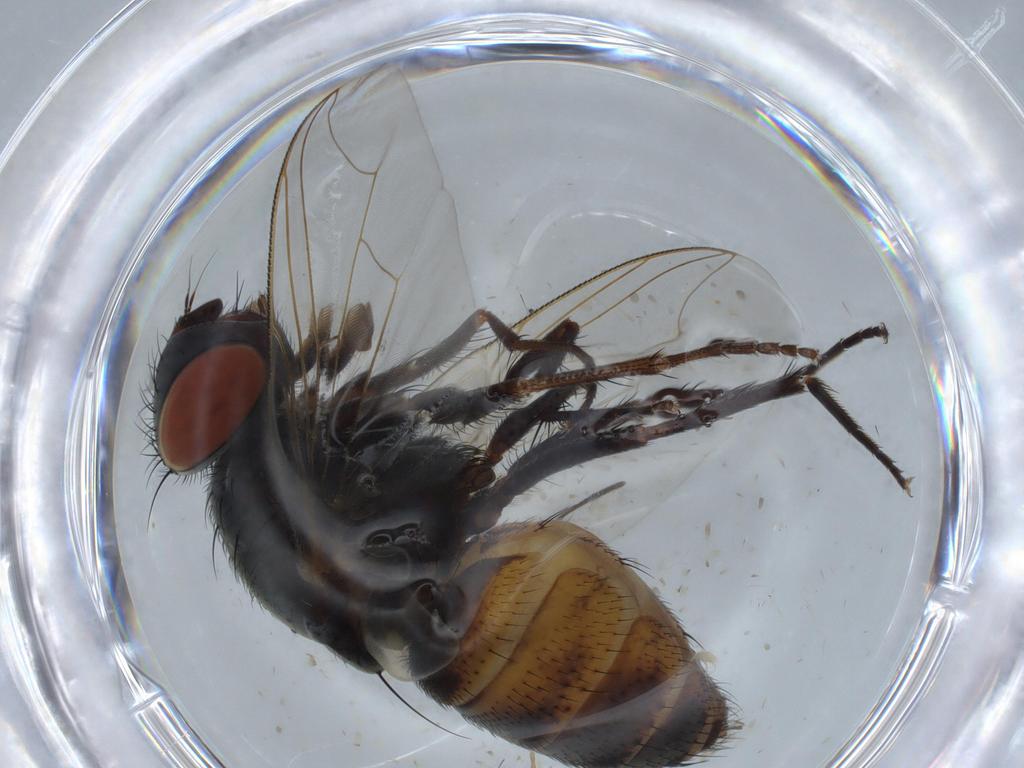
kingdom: Animalia
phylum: Arthropoda
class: Insecta
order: Diptera
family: Sarcophagidae
